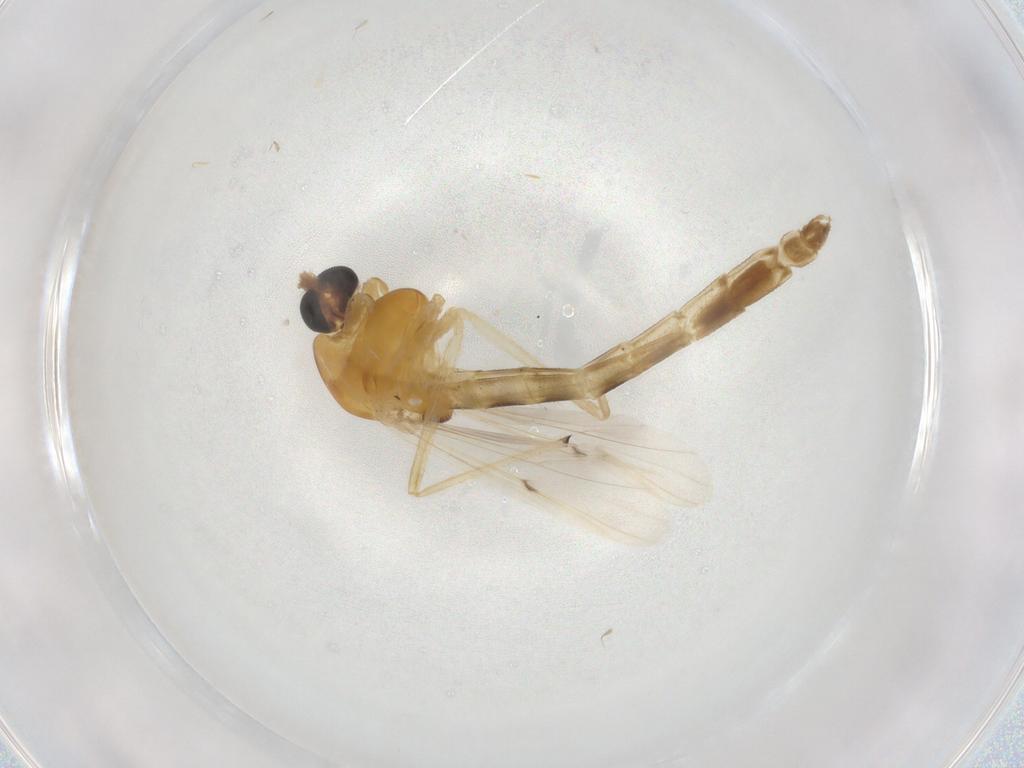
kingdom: Animalia
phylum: Arthropoda
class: Insecta
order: Diptera
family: Chironomidae
